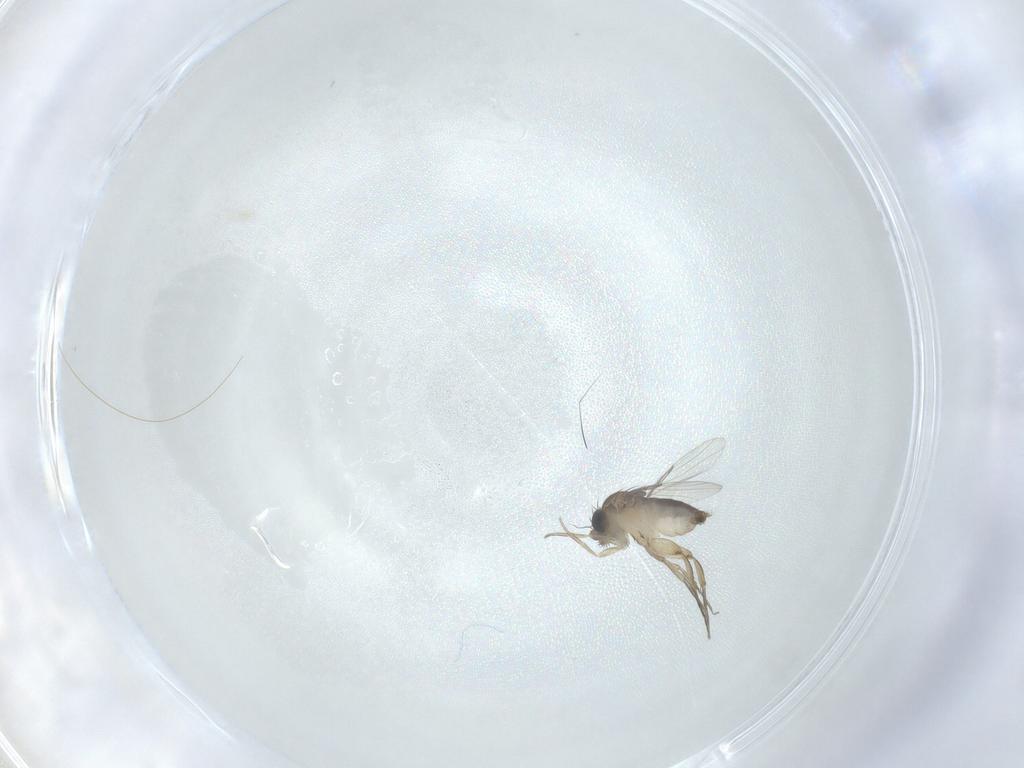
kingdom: Animalia
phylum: Arthropoda
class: Insecta
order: Diptera
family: Phoridae
